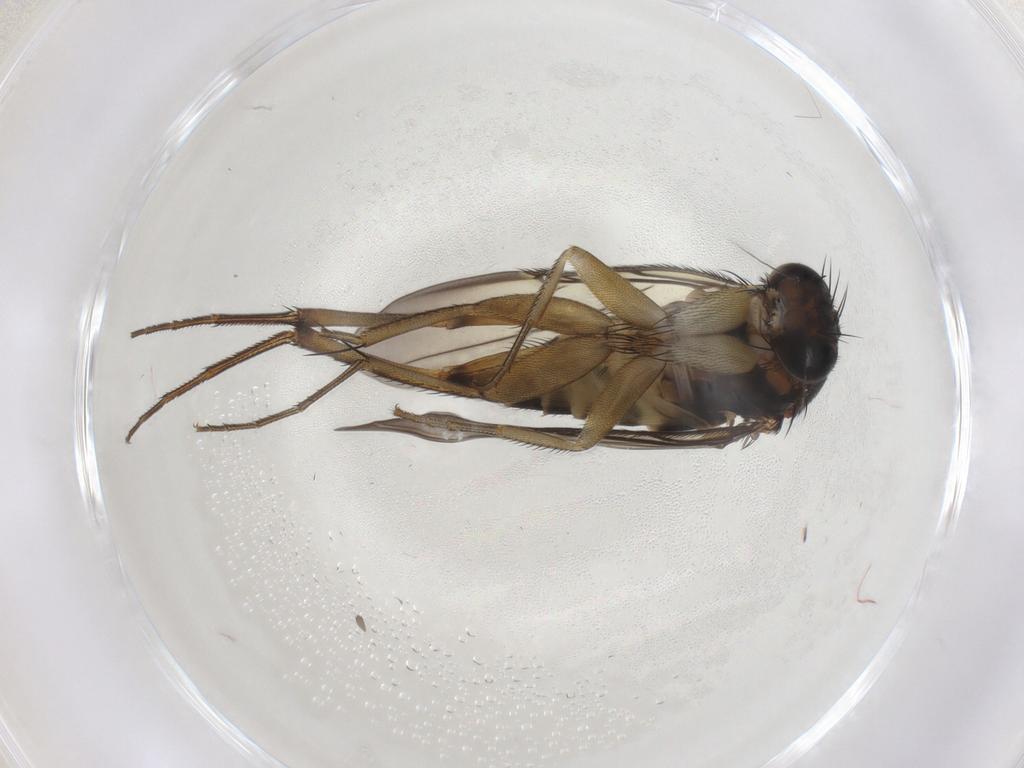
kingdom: Animalia
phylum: Arthropoda
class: Insecta
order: Diptera
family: Phoridae
